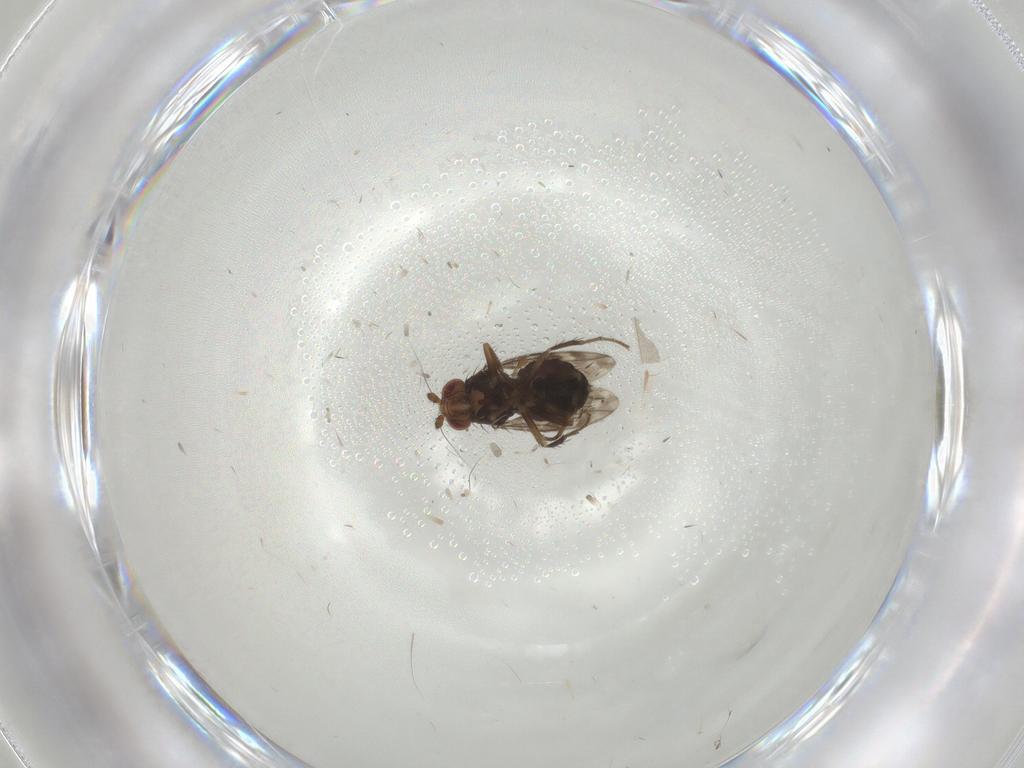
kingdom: Animalia
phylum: Arthropoda
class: Insecta
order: Diptera
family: Sphaeroceridae
